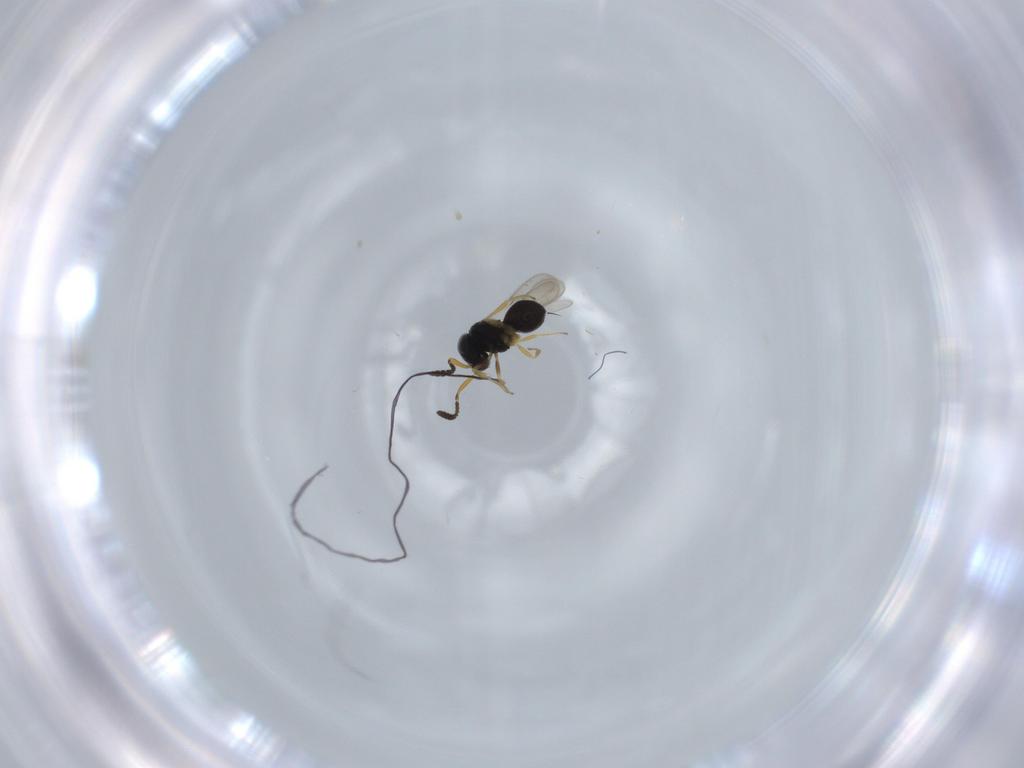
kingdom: Animalia
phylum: Arthropoda
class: Insecta
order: Hymenoptera
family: Scelionidae
